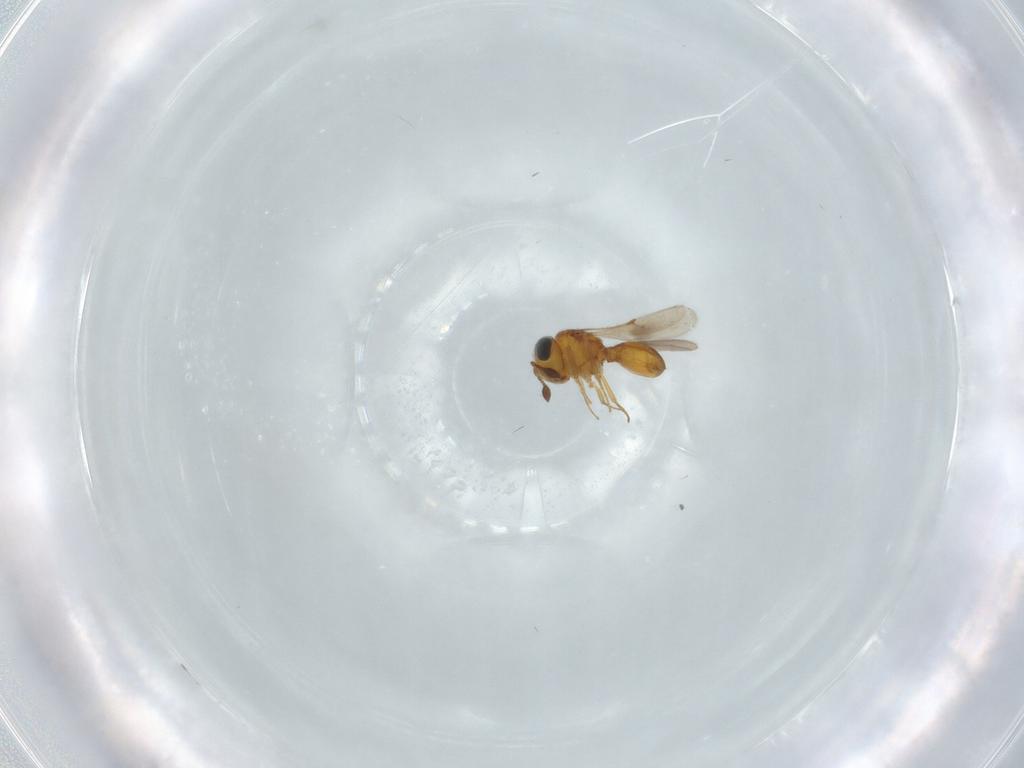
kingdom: Animalia
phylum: Arthropoda
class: Insecta
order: Hymenoptera
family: Scelionidae
